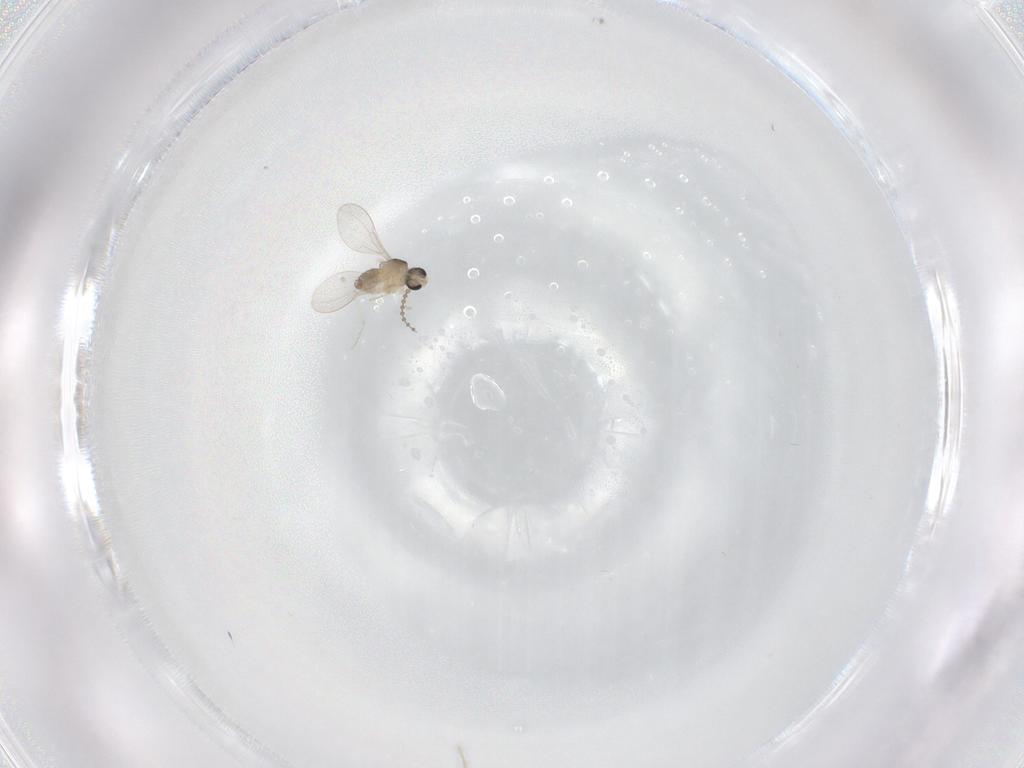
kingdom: Animalia
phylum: Arthropoda
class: Insecta
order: Diptera
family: Cecidomyiidae
